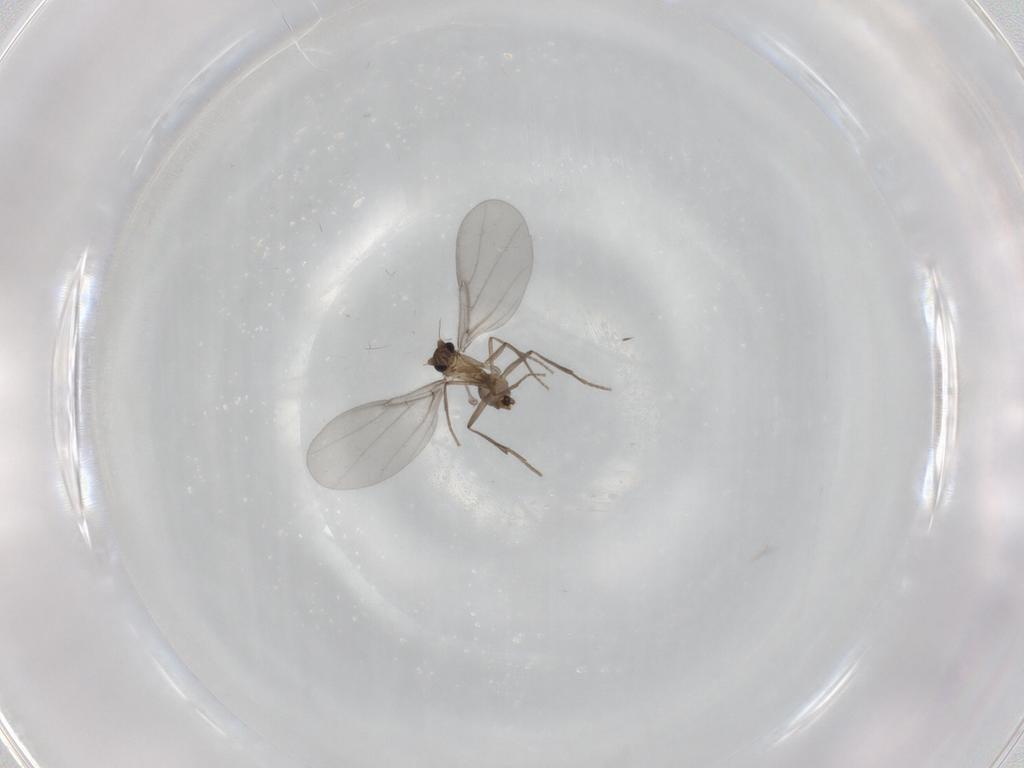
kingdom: Animalia
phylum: Arthropoda
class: Insecta
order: Diptera
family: Phoridae
